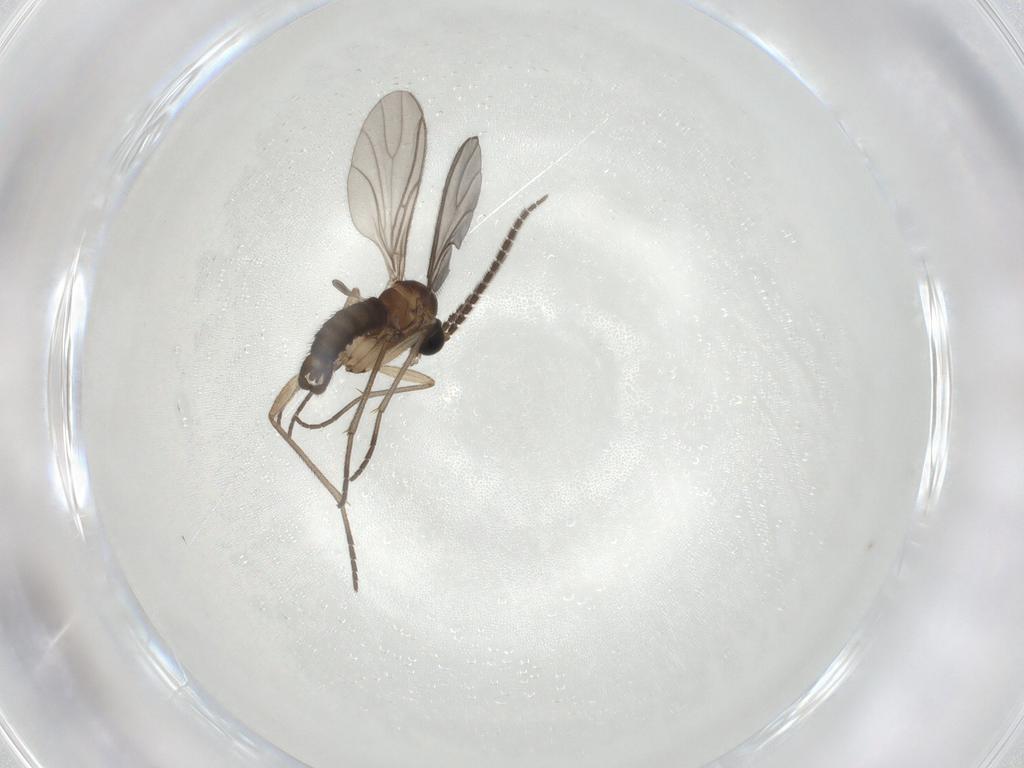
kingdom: Animalia
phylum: Arthropoda
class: Insecta
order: Diptera
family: Sciaridae
